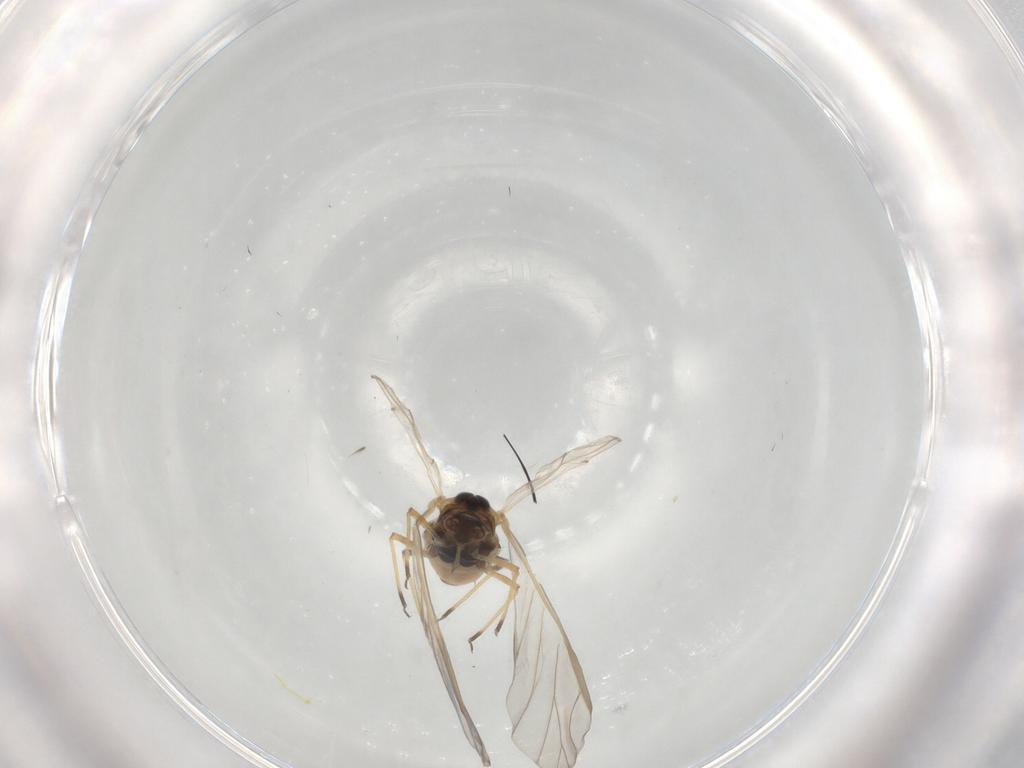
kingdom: Animalia
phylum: Arthropoda
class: Insecta
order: Hemiptera
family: Aphididae
